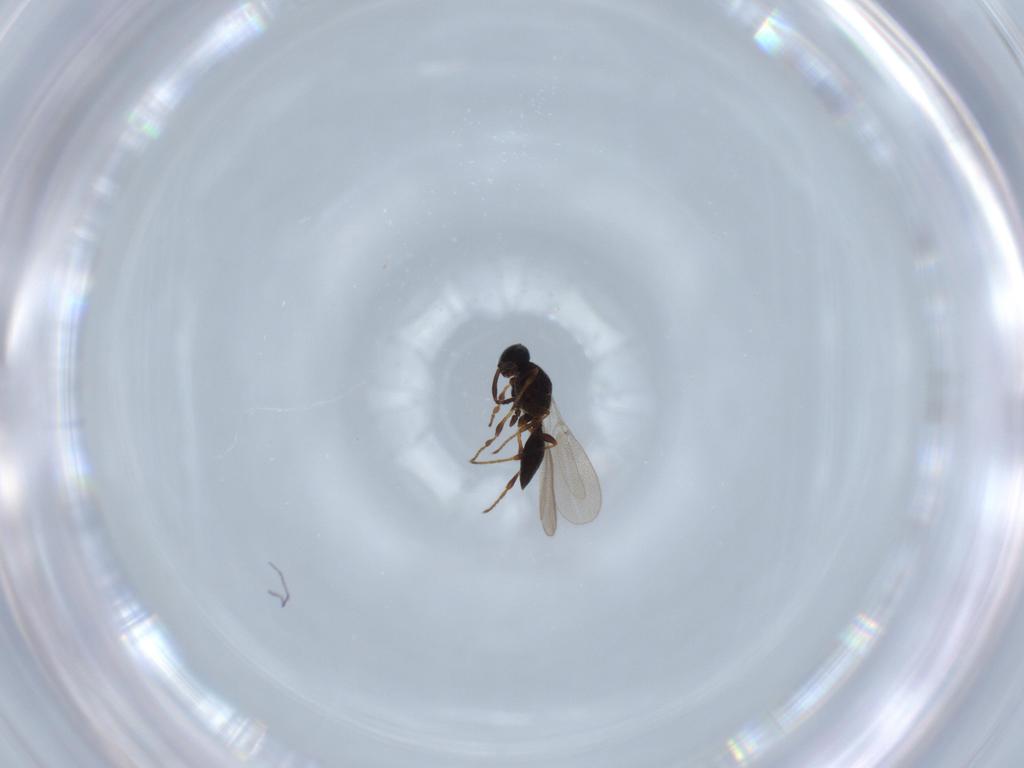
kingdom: Animalia
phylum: Arthropoda
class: Insecta
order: Hymenoptera
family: Platygastridae
